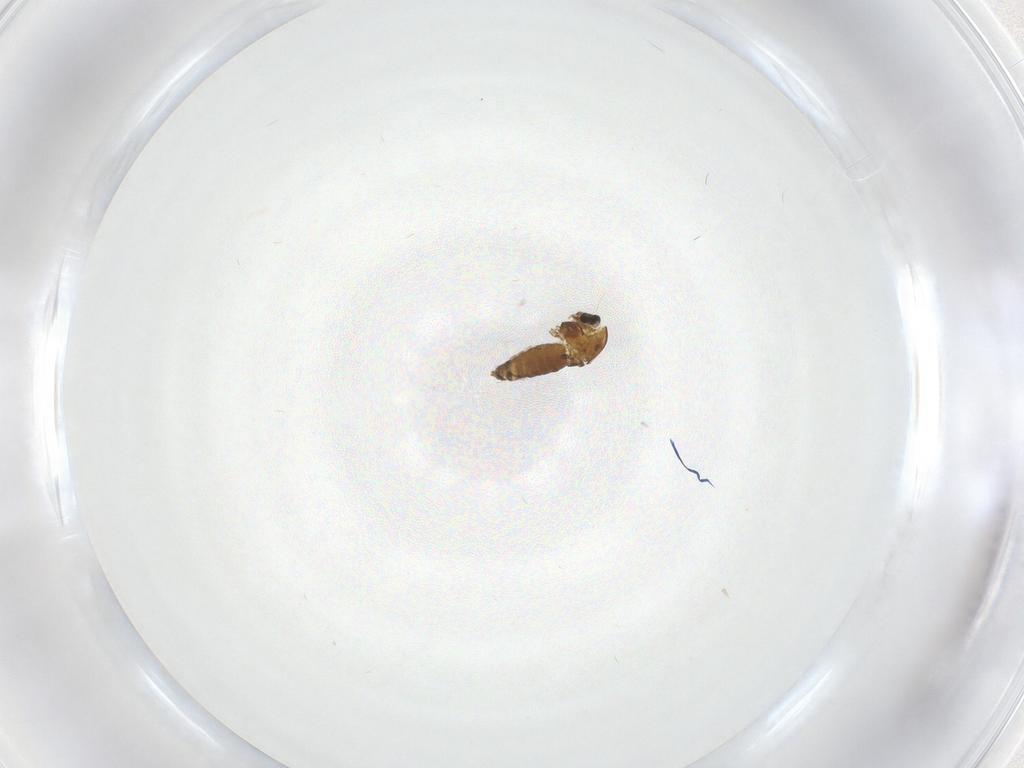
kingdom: Animalia
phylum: Arthropoda
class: Insecta
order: Diptera
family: Chironomidae
